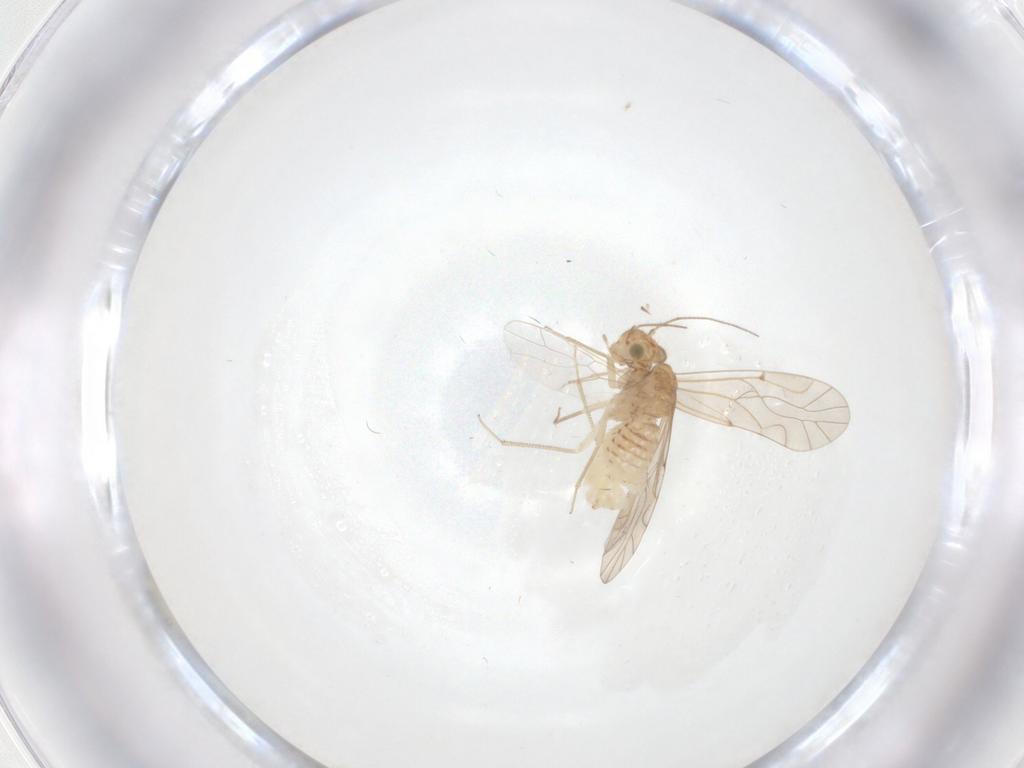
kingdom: Animalia
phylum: Arthropoda
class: Insecta
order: Psocodea
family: Lachesillidae
